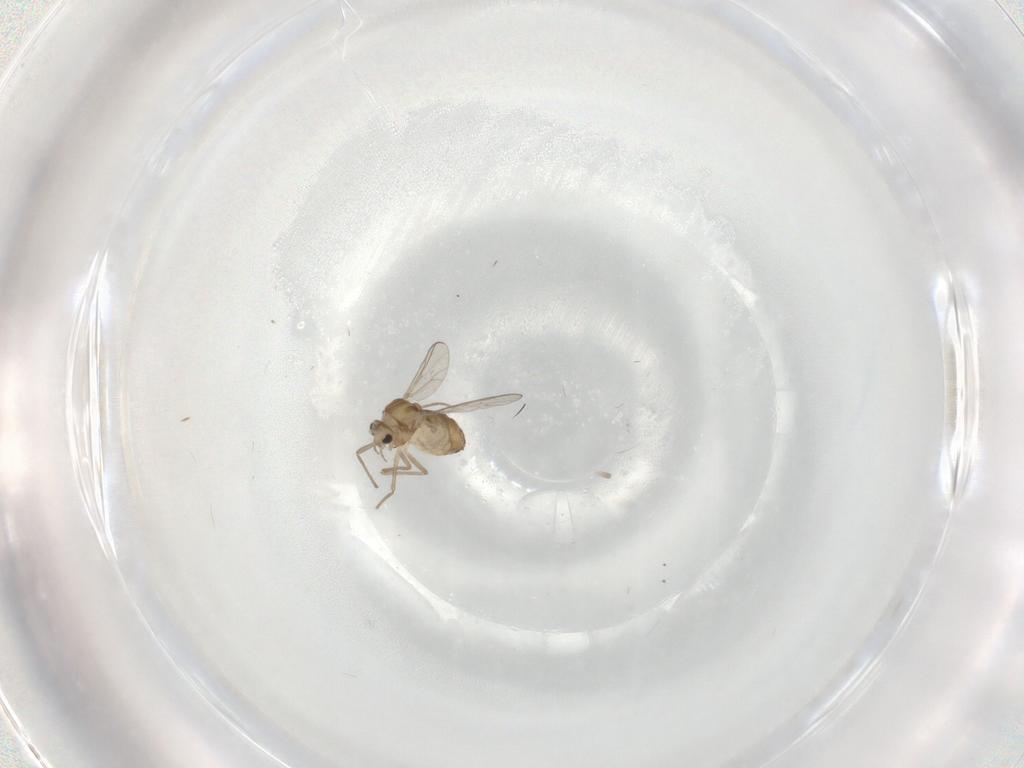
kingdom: Animalia
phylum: Arthropoda
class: Insecta
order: Diptera
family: Chironomidae
